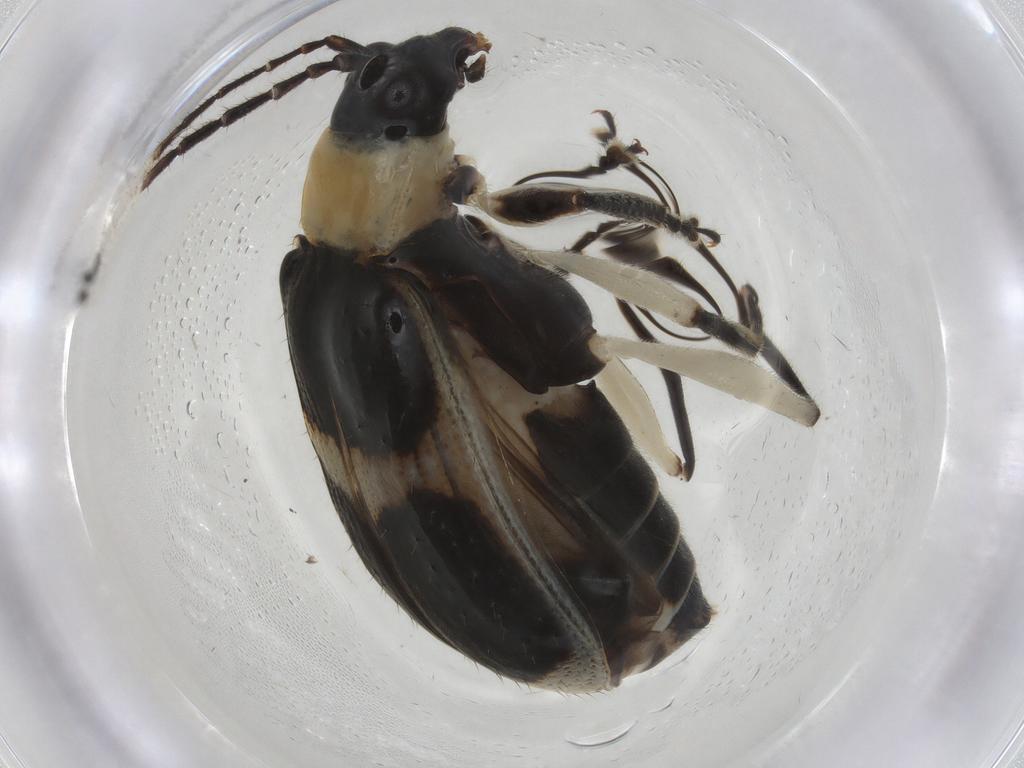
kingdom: Animalia
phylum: Arthropoda
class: Insecta
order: Coleoptera
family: Chrysomelidae
